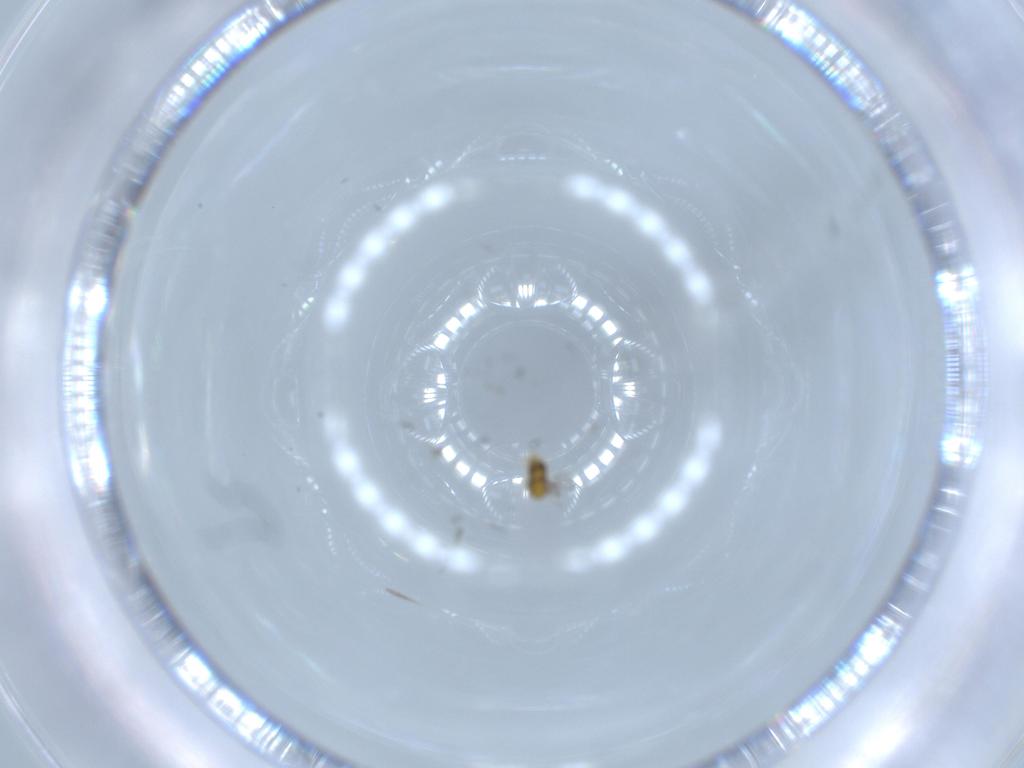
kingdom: Animalia
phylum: Arthropoda
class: Insecta
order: Hymenoptera
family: Aphelinidae
